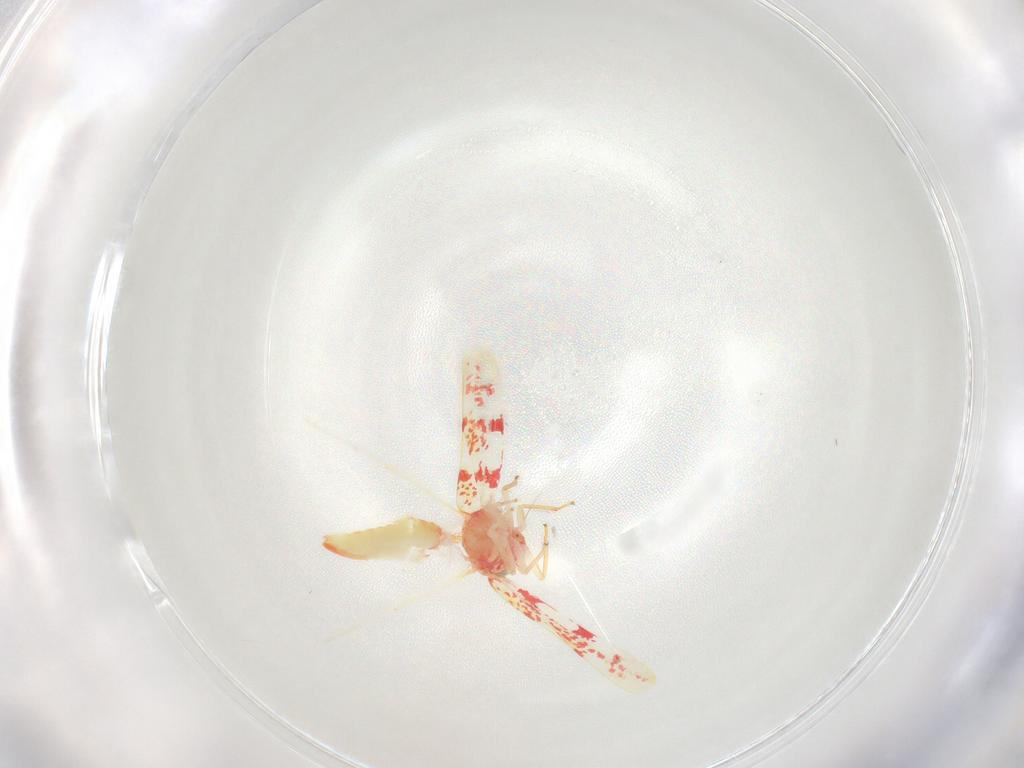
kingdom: Animalia
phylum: Arthropoda
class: Insecta
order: Hemiptera
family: Cicadellidae
